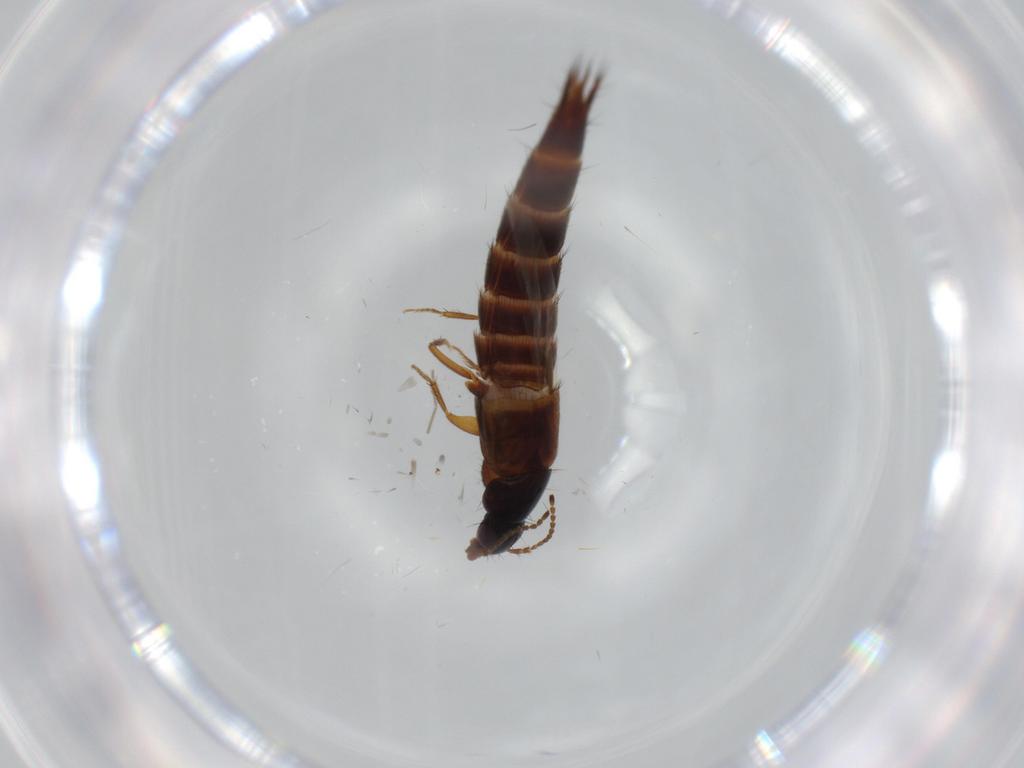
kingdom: Animalia
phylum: Arthropoda
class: Insecta
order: Coleoptera
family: Staphylinidae
